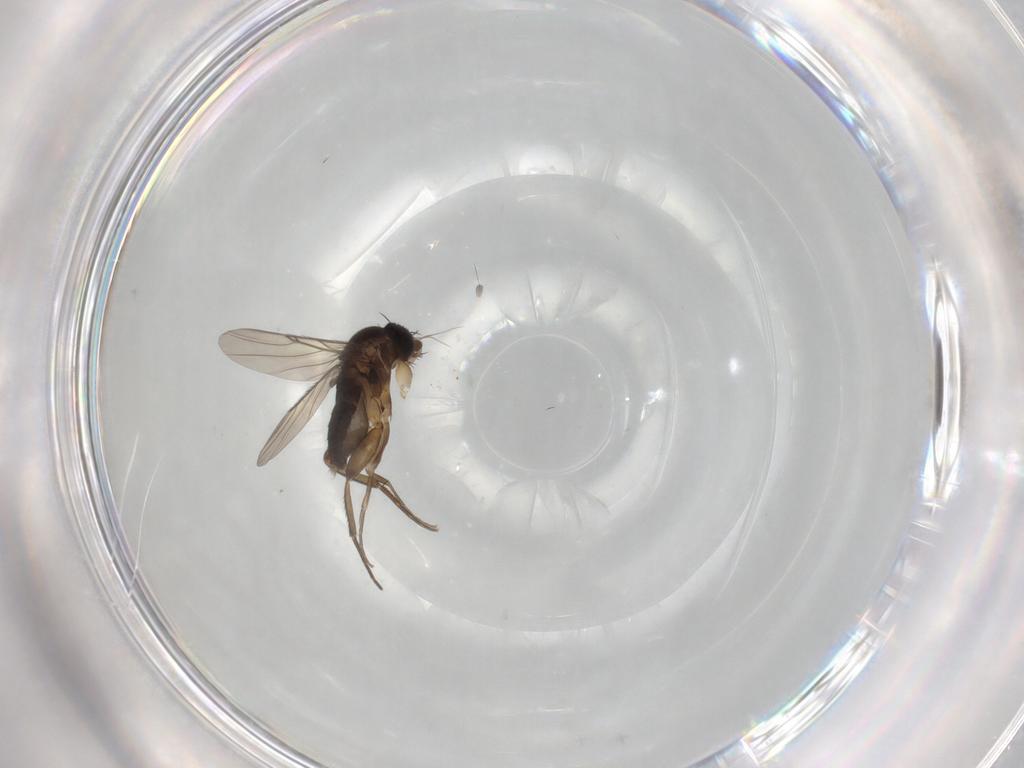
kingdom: Animalia
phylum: Arthropoda
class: Insecta
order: Diptera
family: Phoridae
